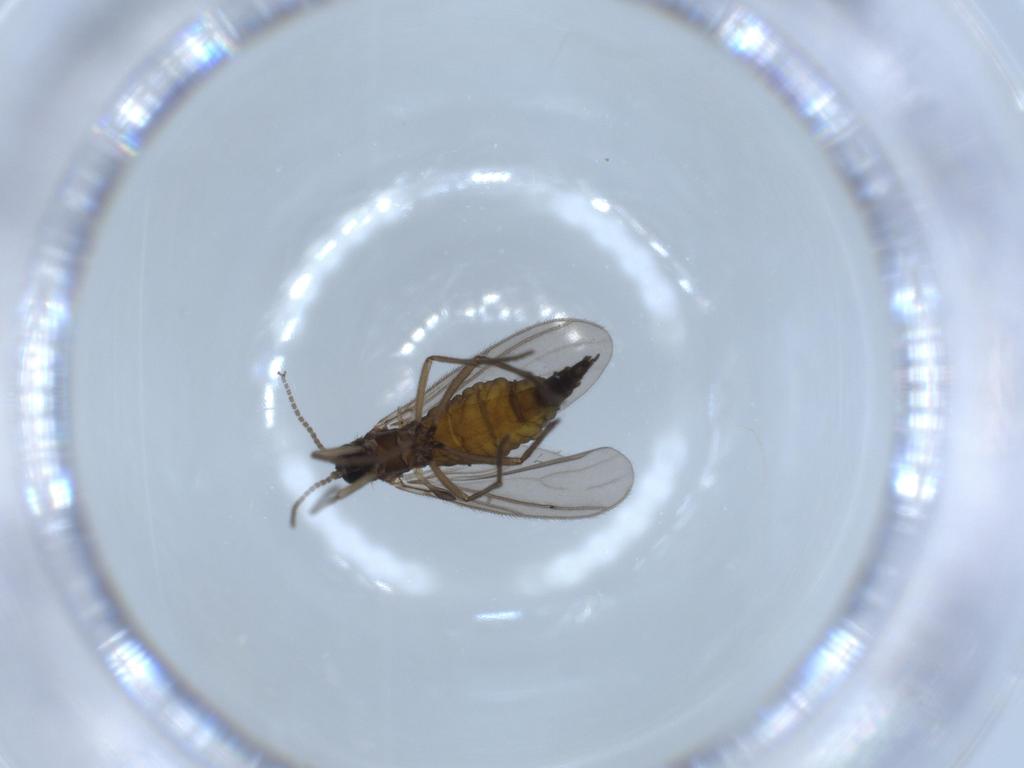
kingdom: Animalia
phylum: Arthropoda
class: Insecta
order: Diptera
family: Sciaridae
